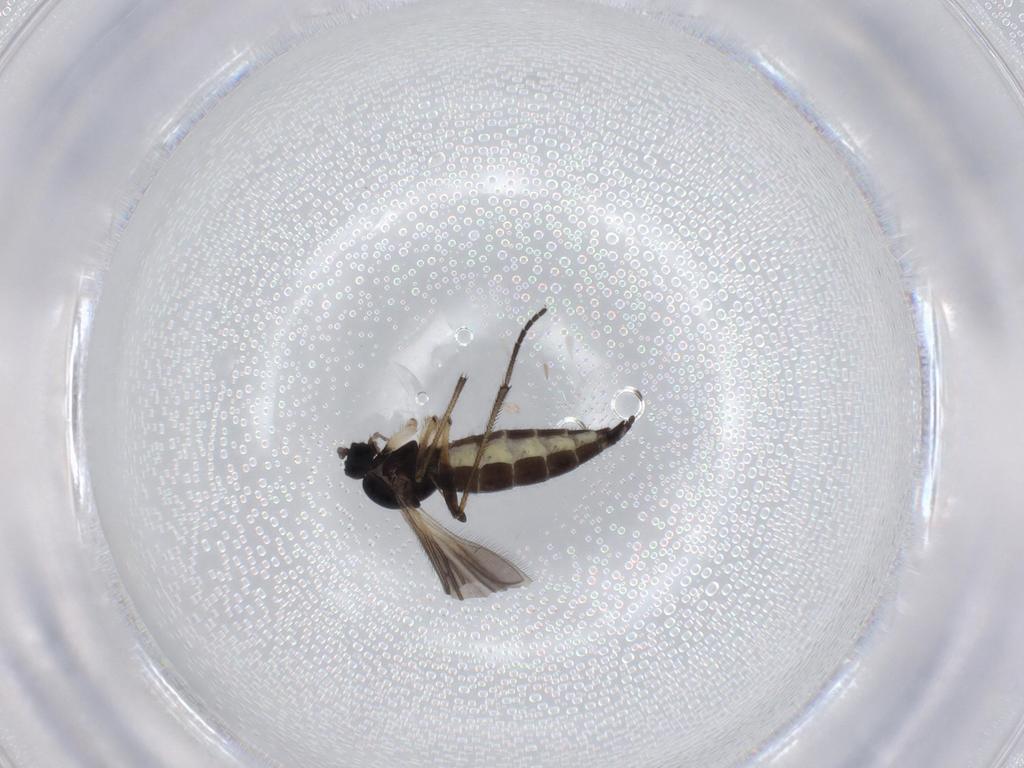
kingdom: Animalia
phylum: Arthropoda
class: Insecta
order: Diptera
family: Sciaridae
